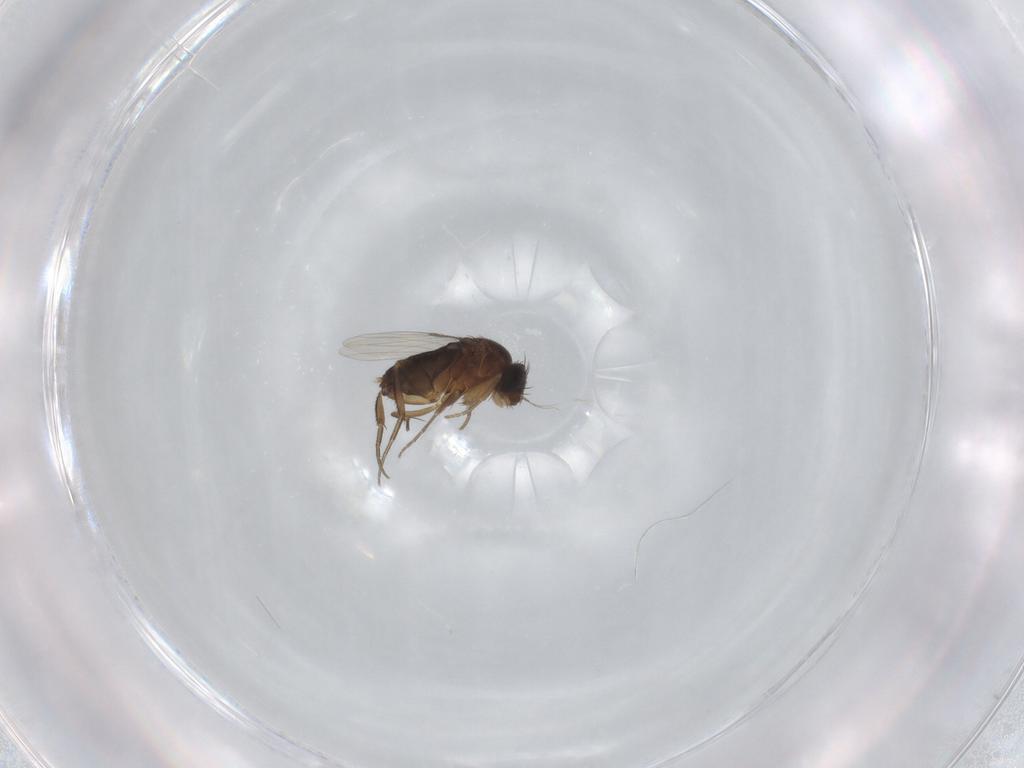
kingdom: Animalia
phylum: Arthropoda
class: Insecta
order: Diptera
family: Phoridae
